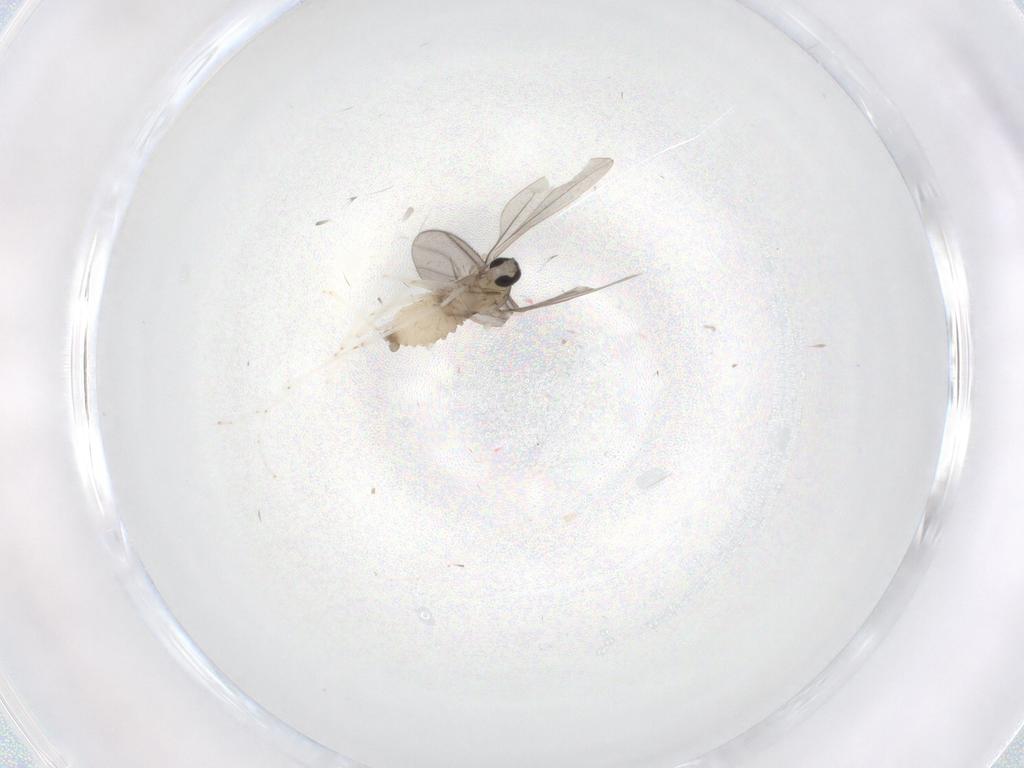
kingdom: Animalia
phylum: Arthropoda
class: Insecta
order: Diptera
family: Cecidomyiidae
